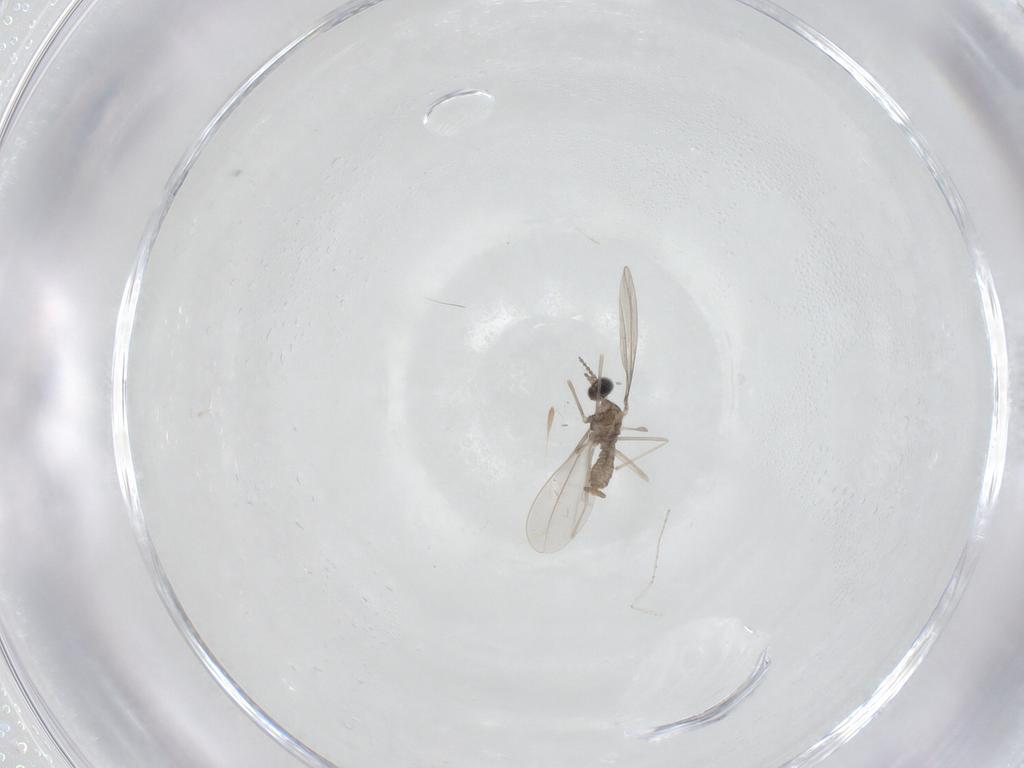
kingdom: Animalia
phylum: Arthropoda
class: Insecta
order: Diptera
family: Cecidomyiidae
